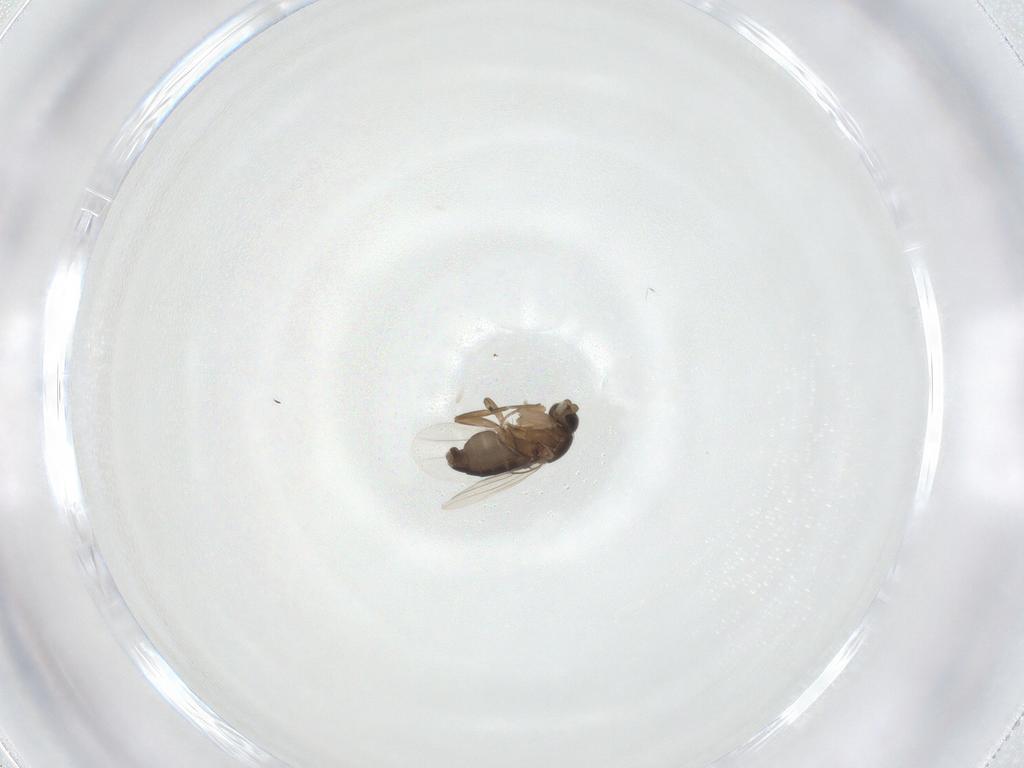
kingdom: Animalia
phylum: Arthropoda
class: Insecta
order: Diptera
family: Phoridae
